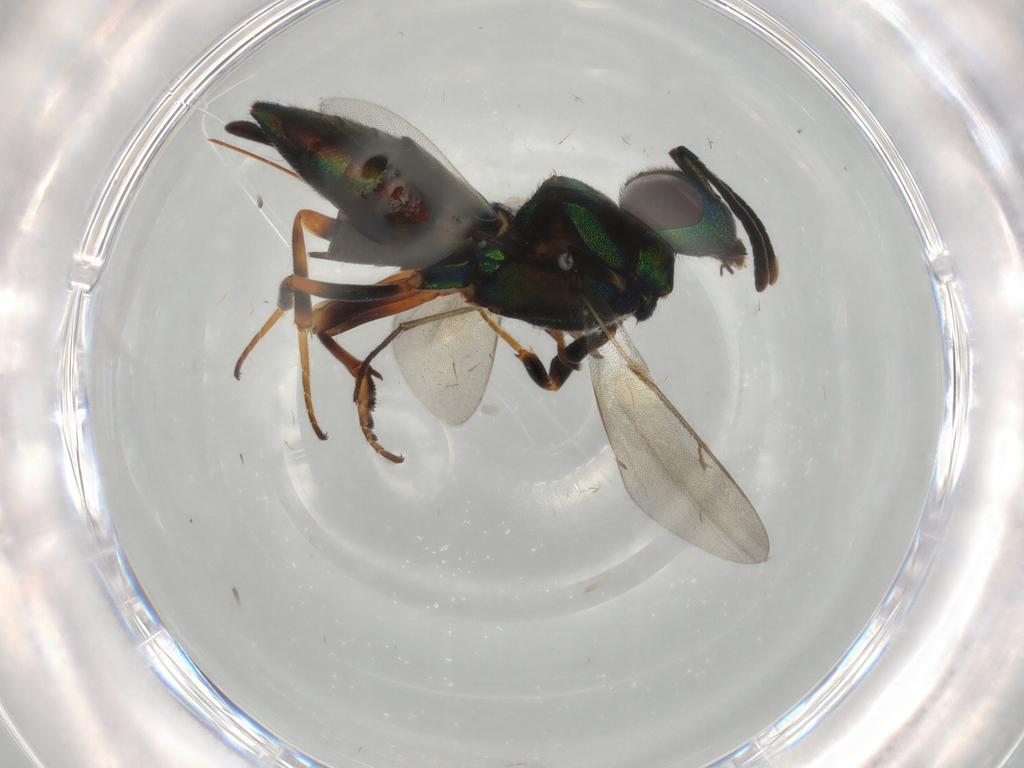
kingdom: Animalia
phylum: Arthropoda
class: Insecta
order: Hymenoptera
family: Eupelmidae
